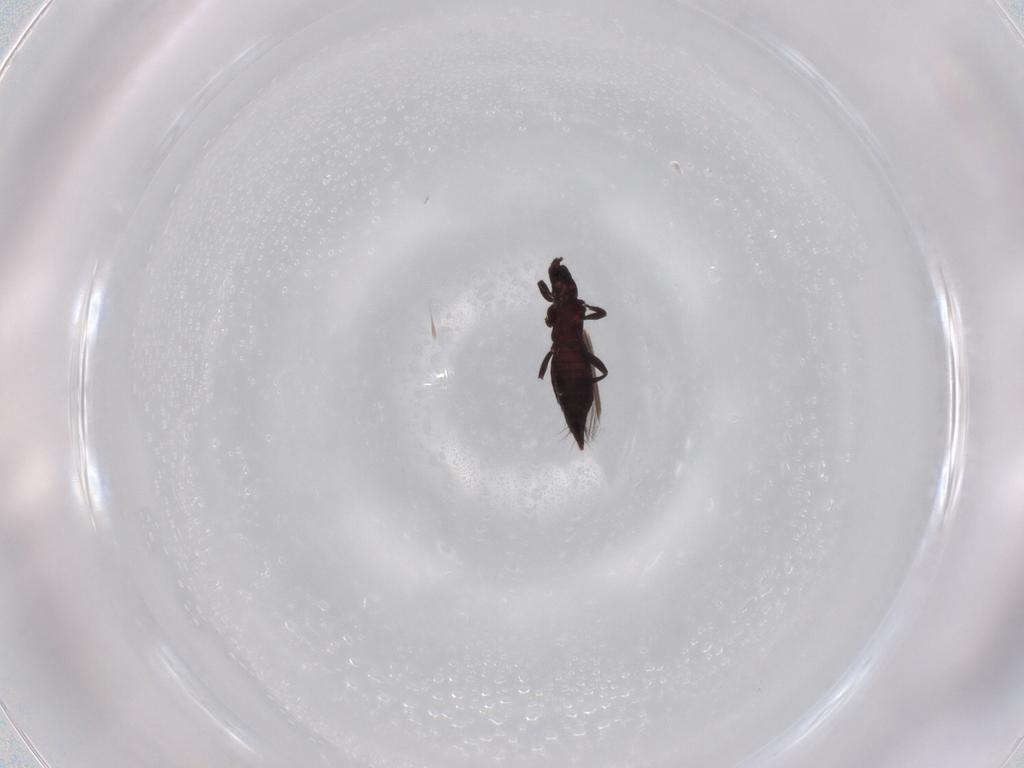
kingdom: Animalia
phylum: Arthropoda
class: Insecta
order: Thysanoptera
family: Aeolothripidae
